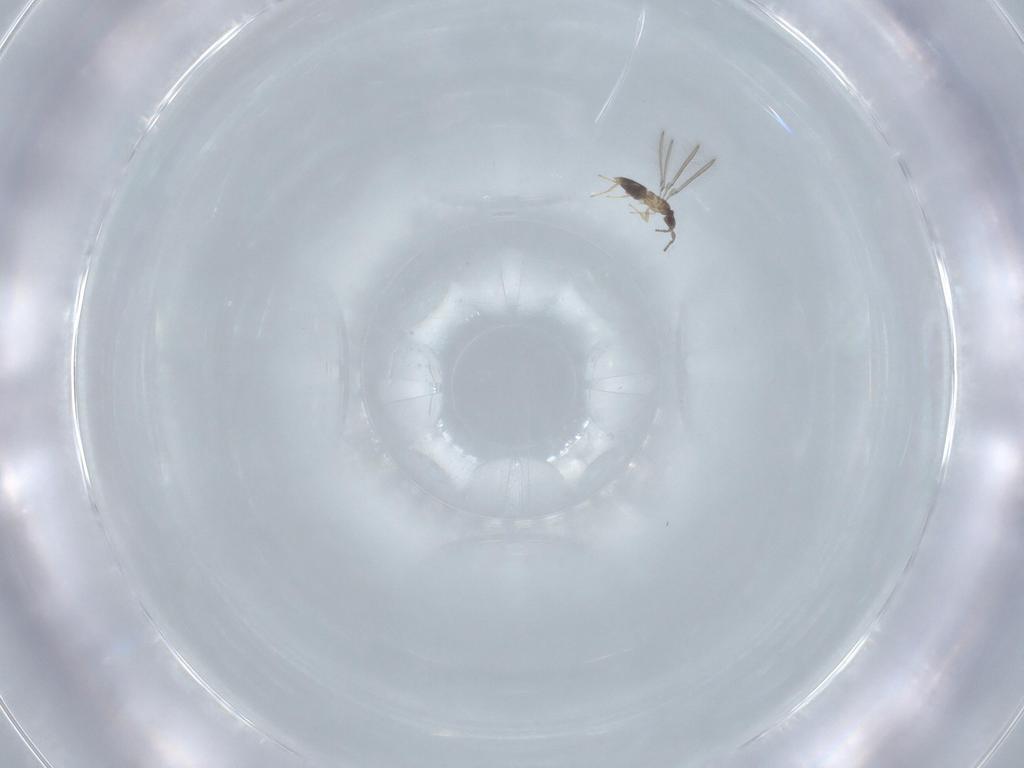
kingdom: Animalia
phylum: Arthropoda
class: Insecta
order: Hymenoptera
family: Mymaridae
